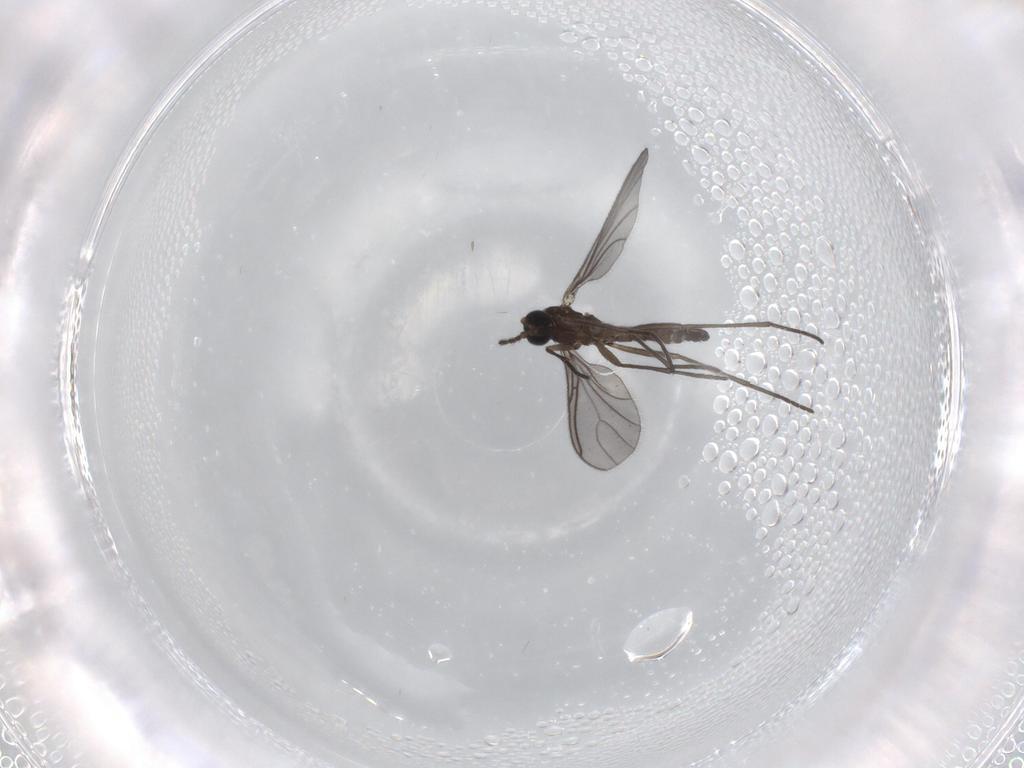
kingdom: Animalia
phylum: Arthropoda
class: Insecta
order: Diptera
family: Sciaridae
